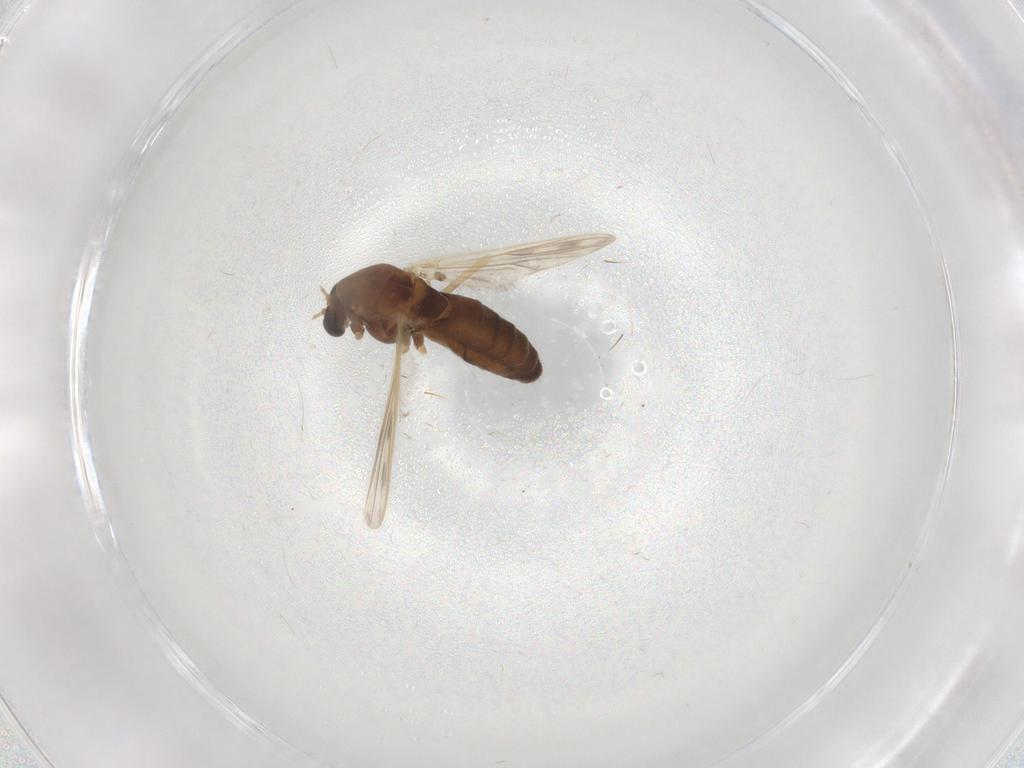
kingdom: Animalia
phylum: Arthropoda
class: Insecta
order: Diptera
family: Chironomidae
